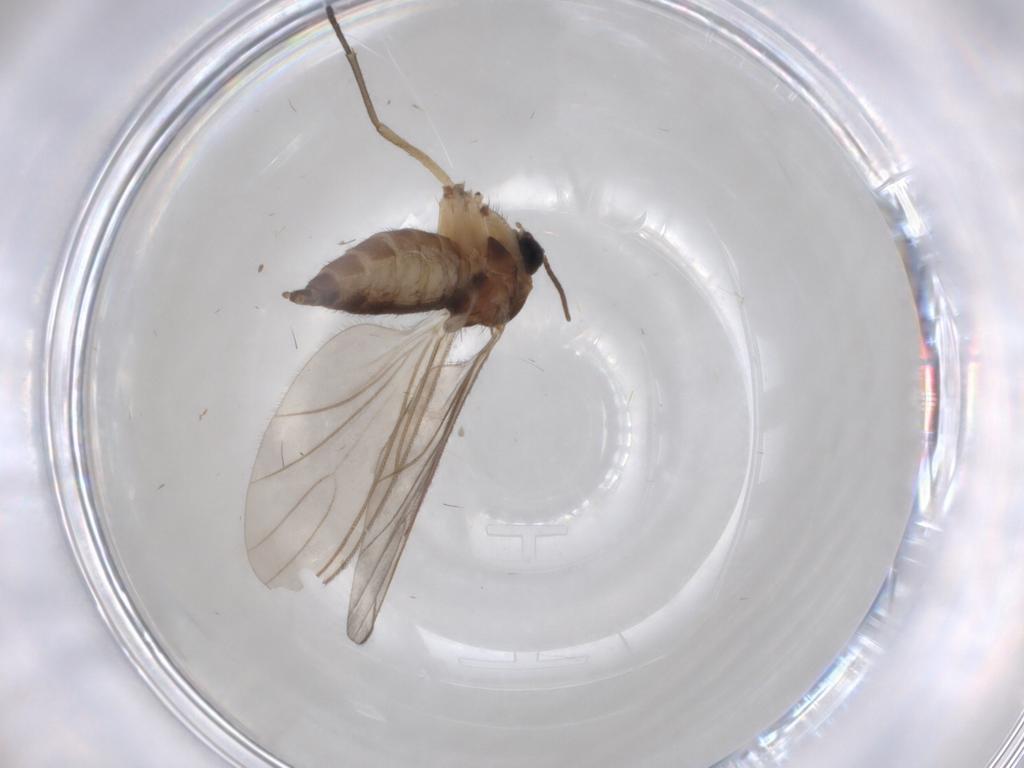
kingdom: Animalia
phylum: Arthropoda
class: Insecta
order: Diptera
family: Sciaridae
